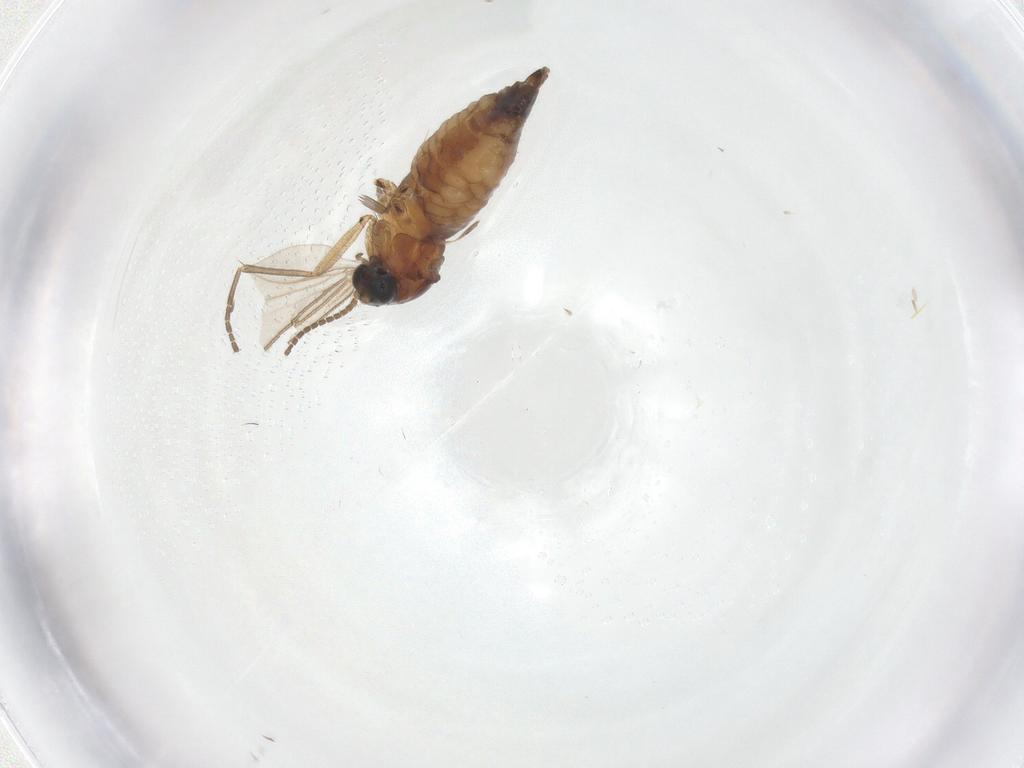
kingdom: Animalia
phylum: Arthropoda
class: Insecta
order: Diptera
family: Sciaridae
